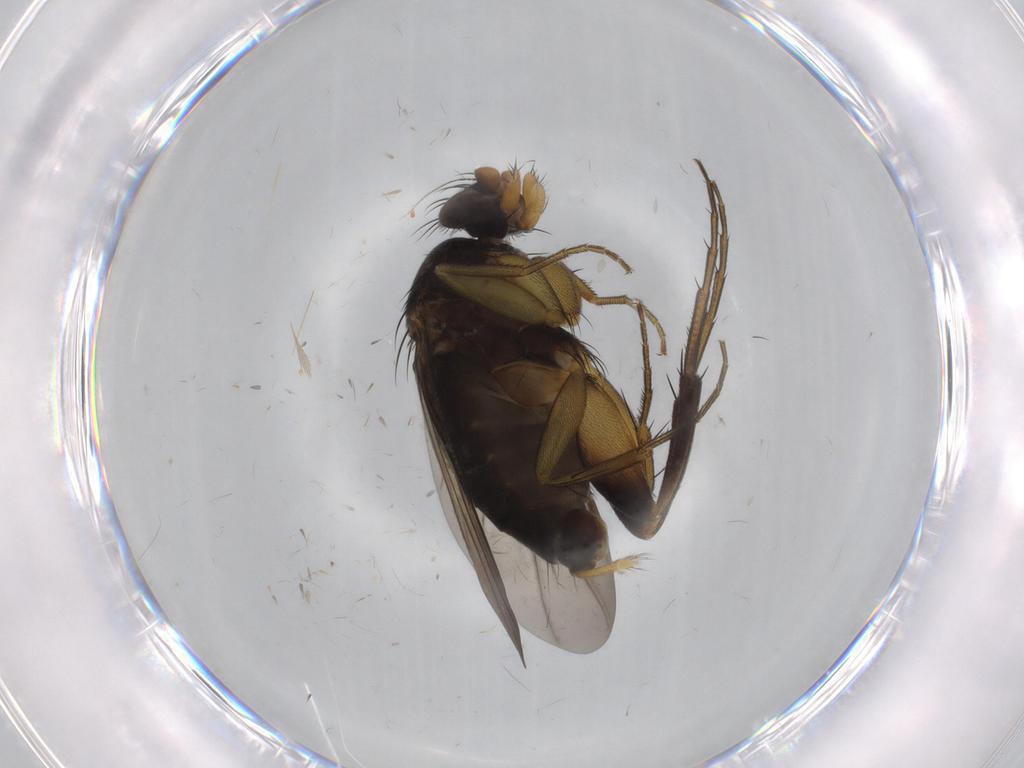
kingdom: Animalia
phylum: Arthropoda
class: Insecta
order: Diptera
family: Phoridae
